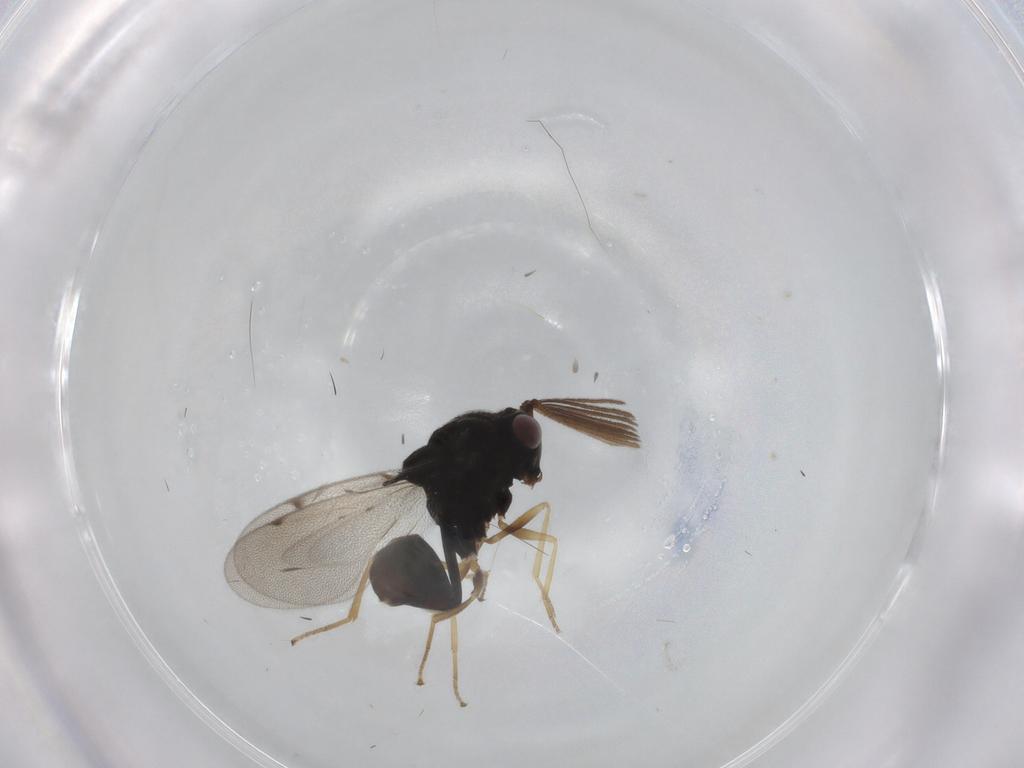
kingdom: Animalia
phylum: Arthropoda
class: Insecta
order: Hymenoptera
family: Eucharitidae
